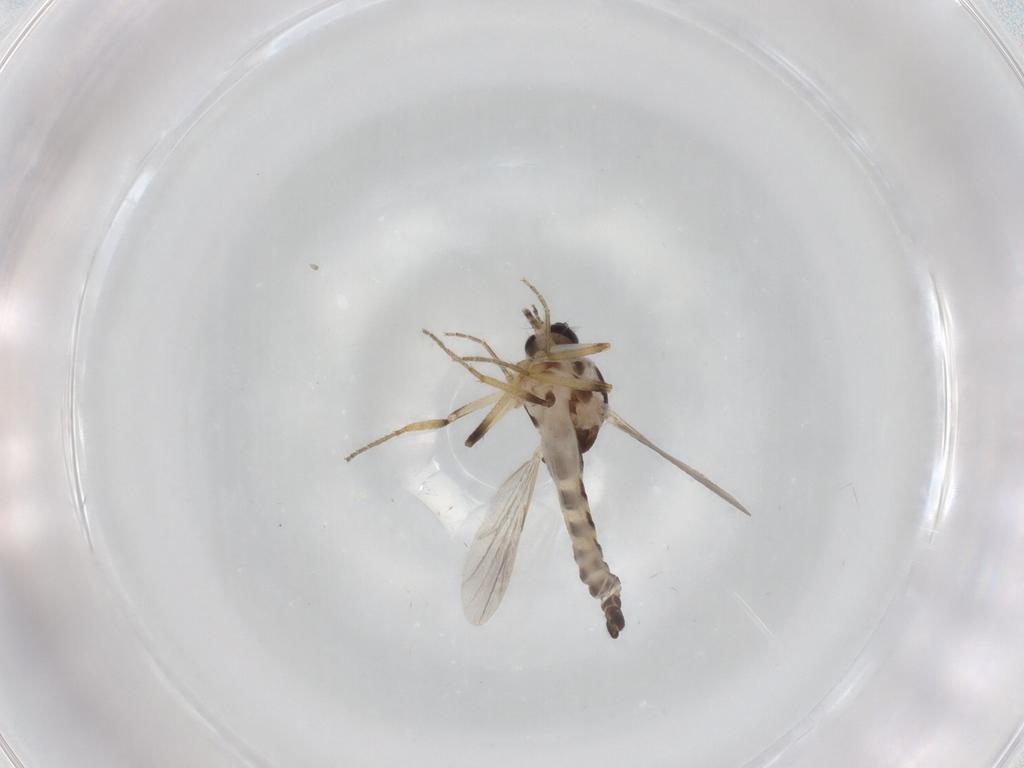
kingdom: Animalia
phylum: Arthropoda
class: Insecta
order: Diptera
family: Ceratopogonidae
